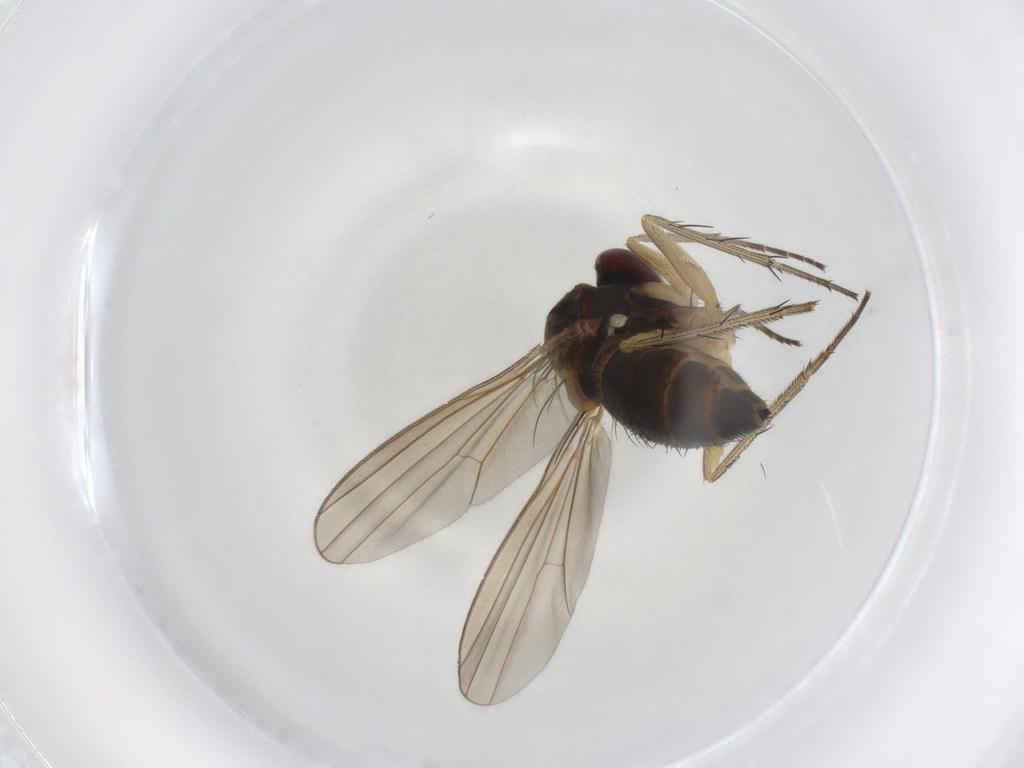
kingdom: Animalia
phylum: Arthropoda
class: Insecta
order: Diptera
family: Dolichopodidae
